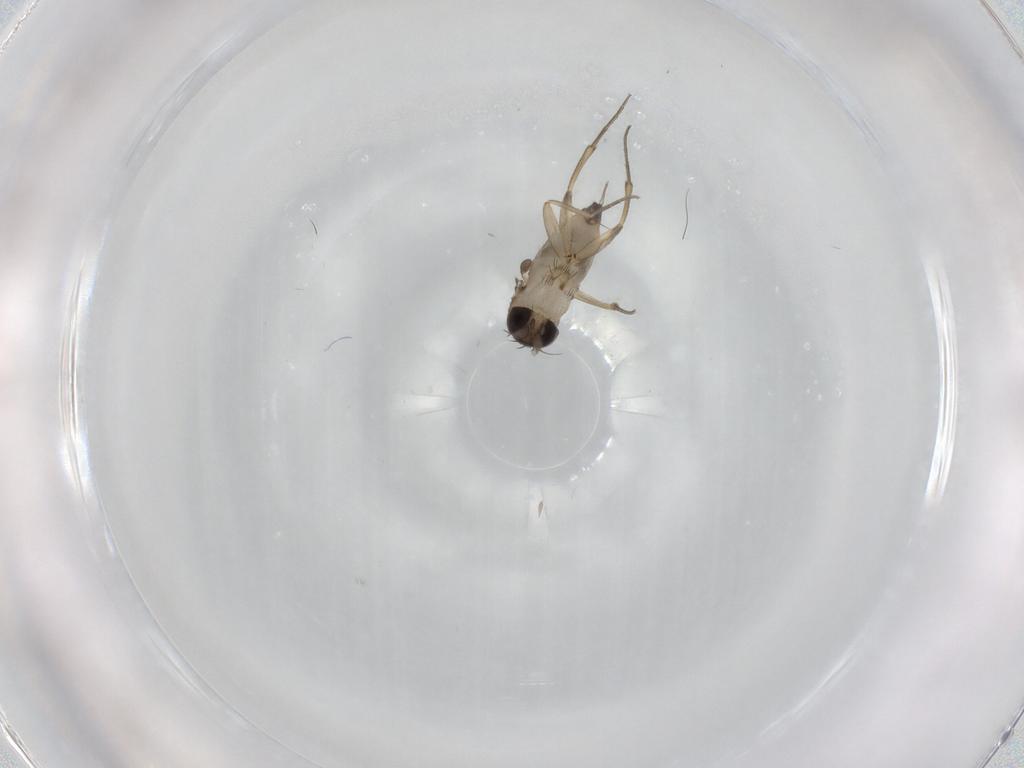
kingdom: Animalia
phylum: Arthropoda
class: Insecta
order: Diptera
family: Phoridae
